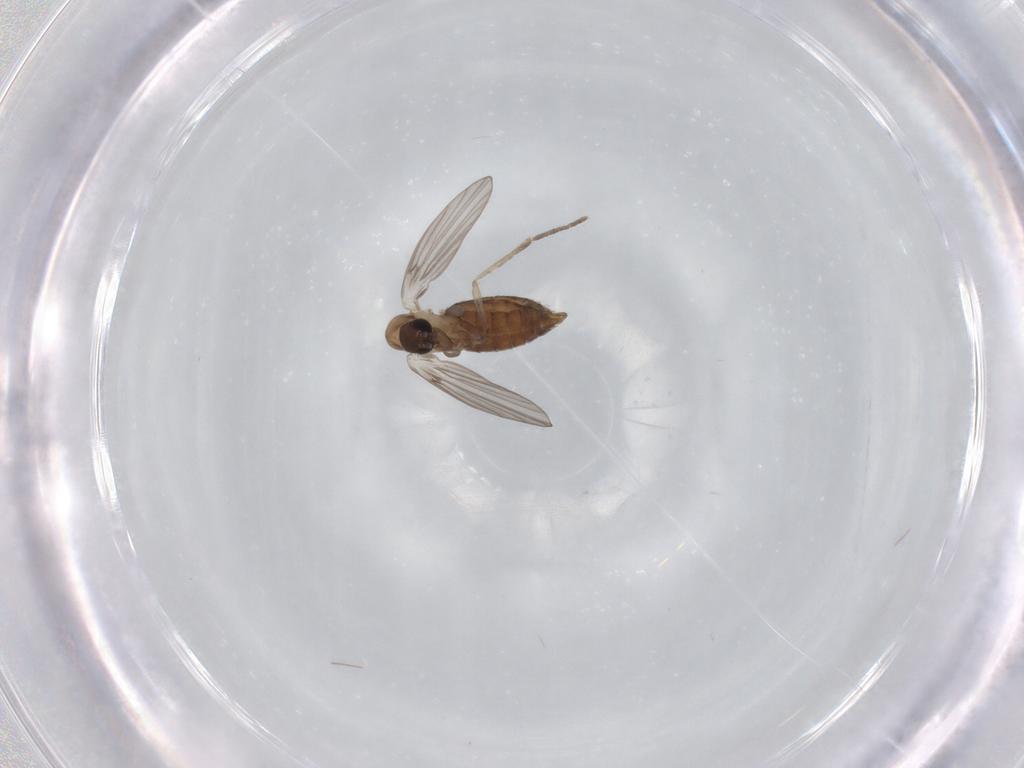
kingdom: Animalia
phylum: Arthropoda
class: Insecta
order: Diptera
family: Psychodidae
